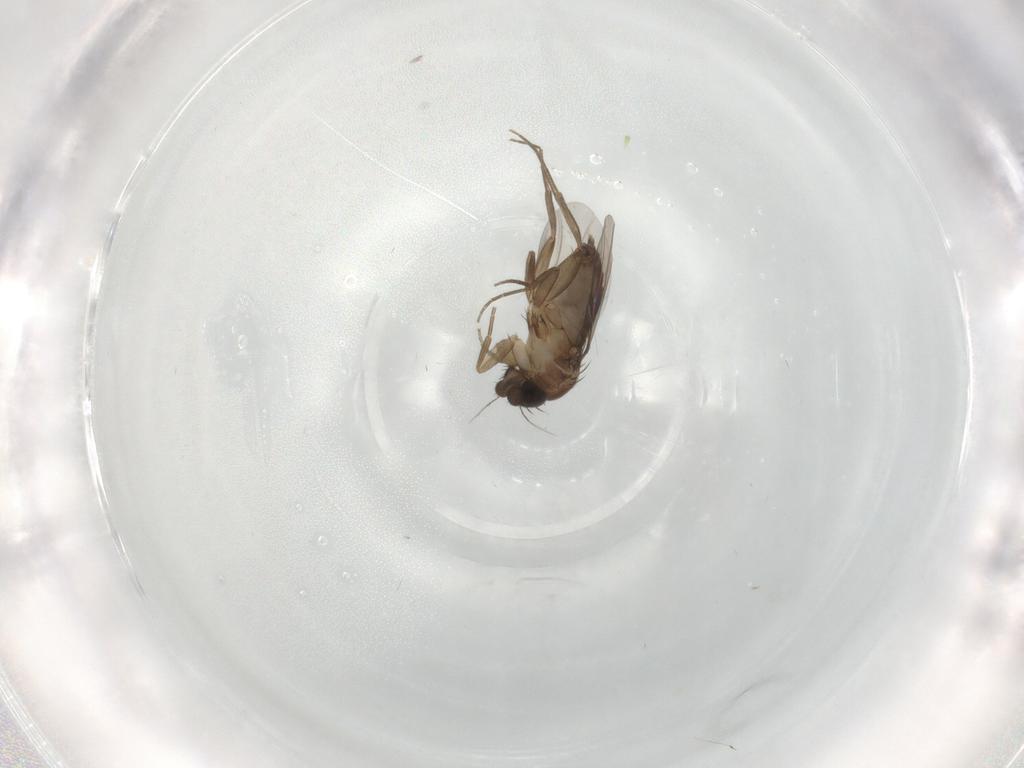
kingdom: Animalia
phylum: Arthropoda
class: Insecta
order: Diptera
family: Phoridae
